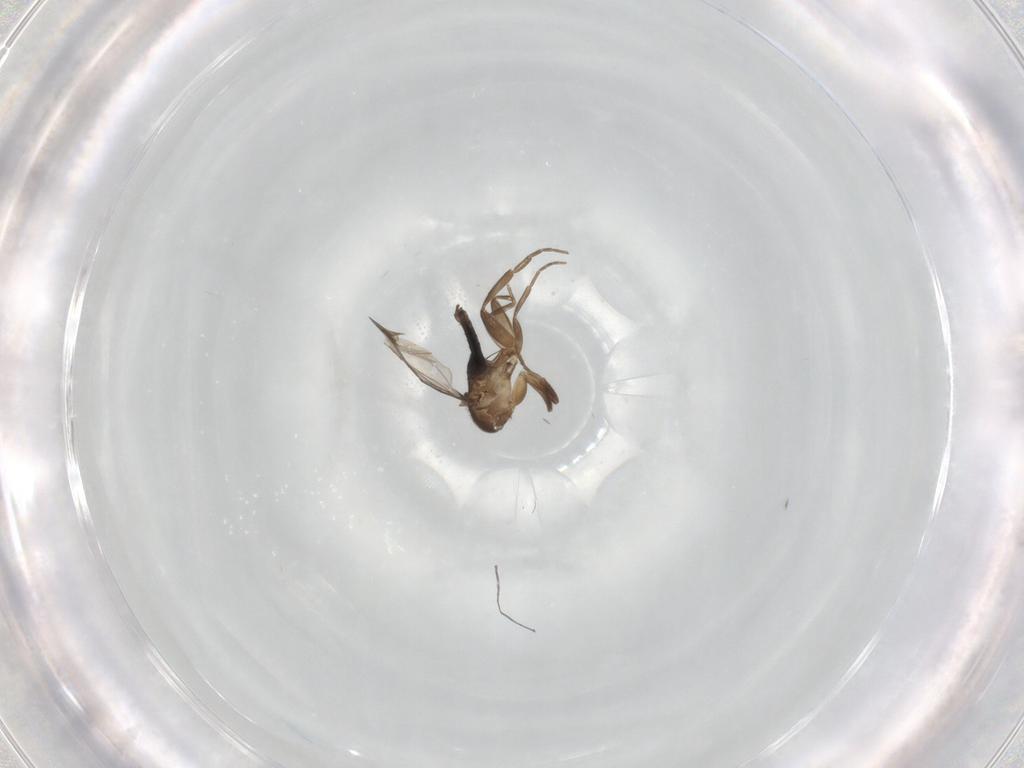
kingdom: Animalia
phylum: Arthropoda
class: Insecta
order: Diptera
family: Phoridae
